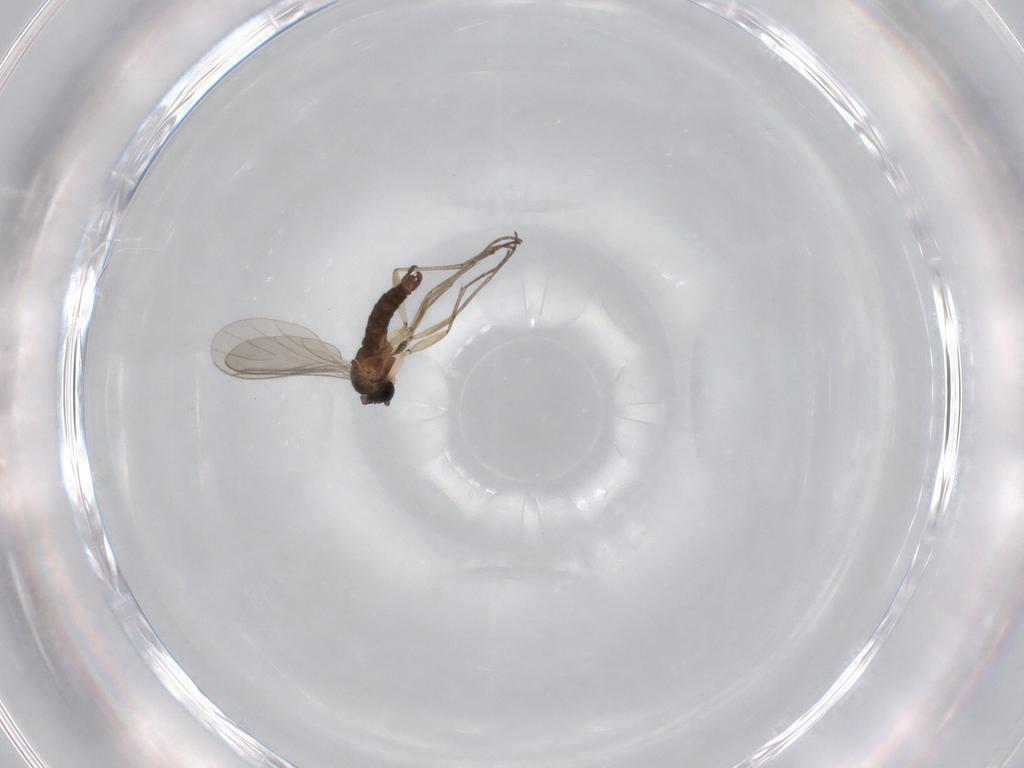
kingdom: Animalia
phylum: Arthropoda
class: Insecta
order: Diptera
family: Sciaridae
